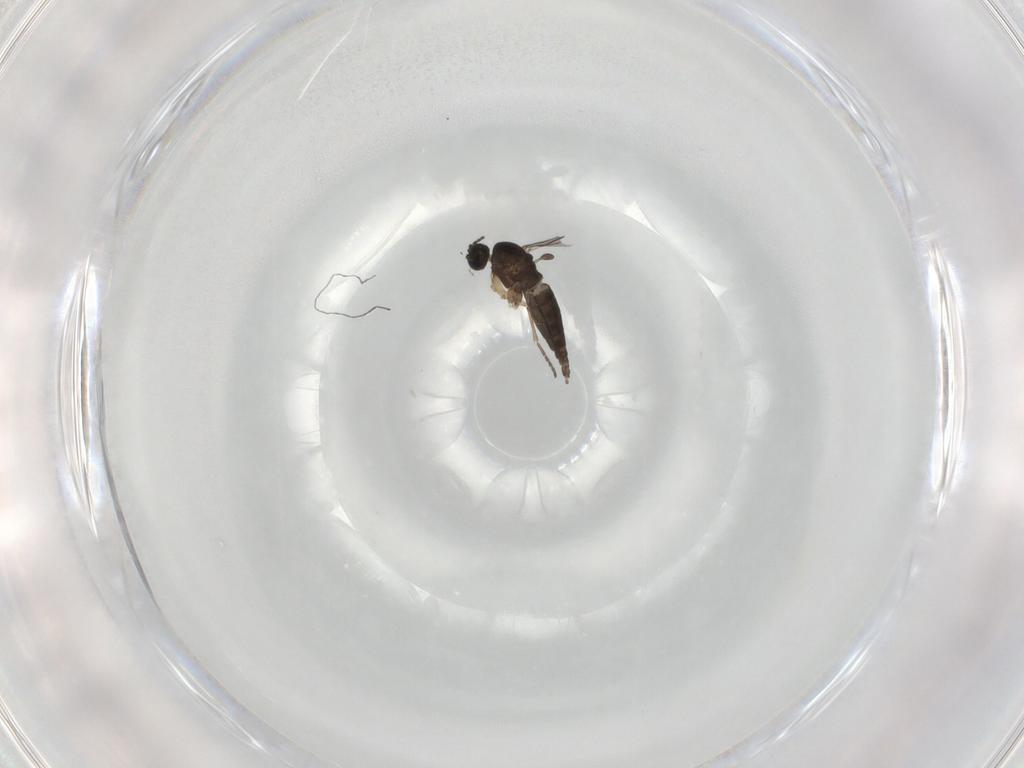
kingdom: Animalia
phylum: Arthropoda
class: Insecta
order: Diptera
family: Sciaridae
